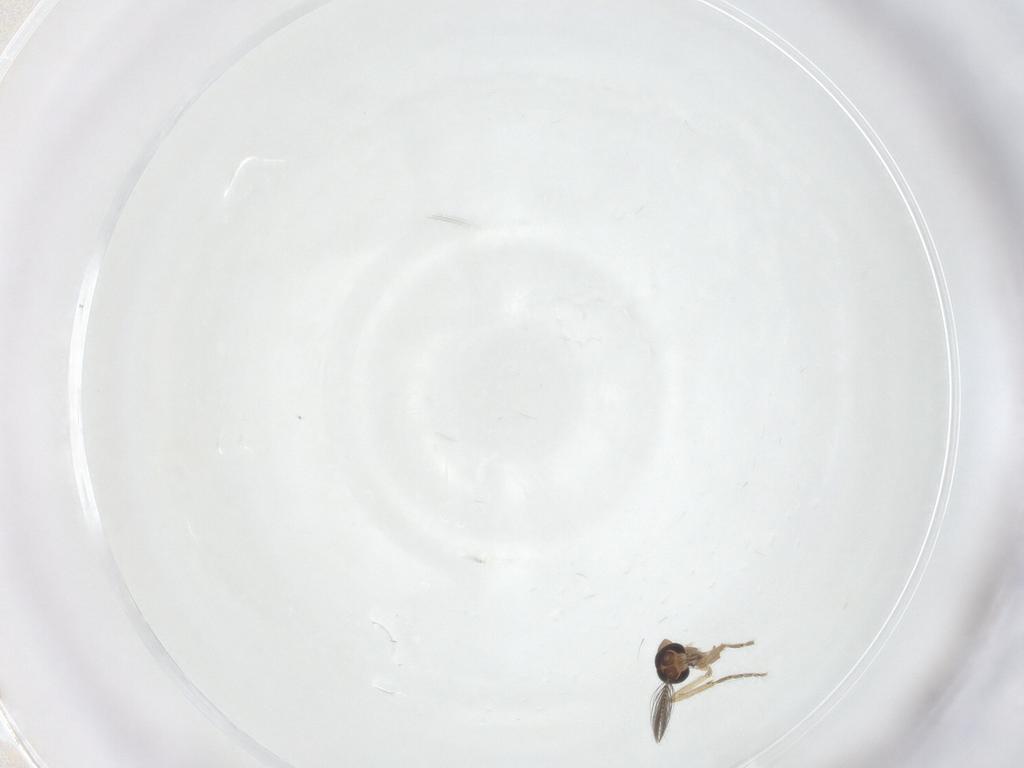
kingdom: Animalia
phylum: Arthropoda
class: Insecta
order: Diptera
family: Ceratopogonidae
